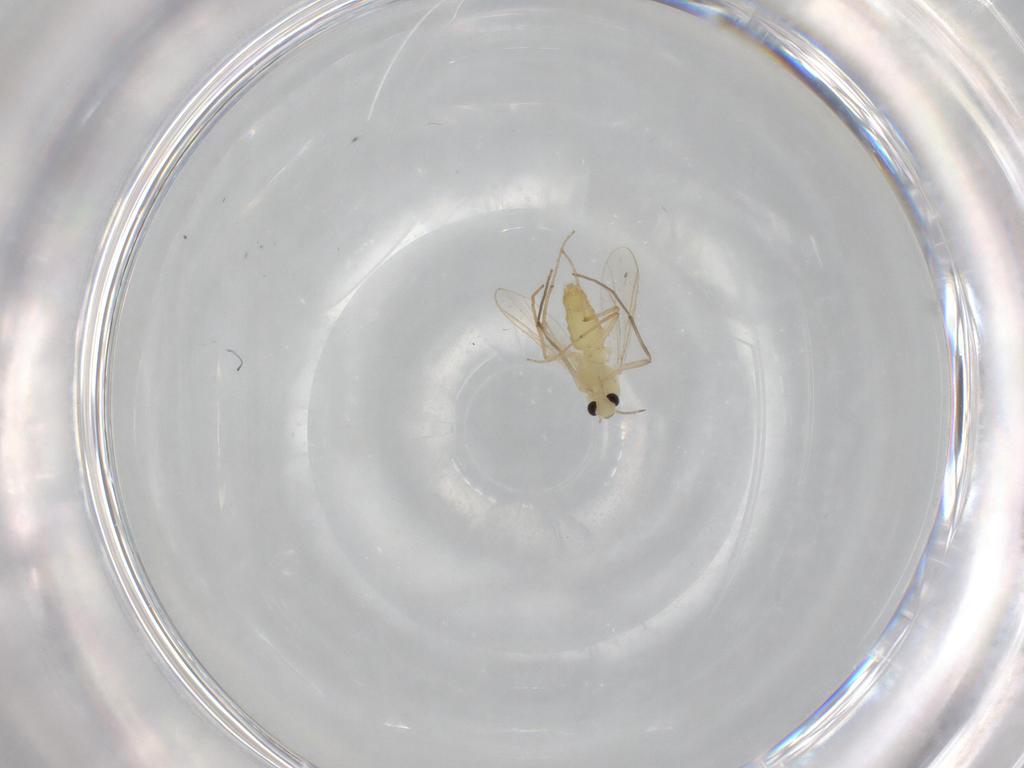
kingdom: Animalia
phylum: Arthropoda
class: Insecta
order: Diptera
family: Chironomidae
